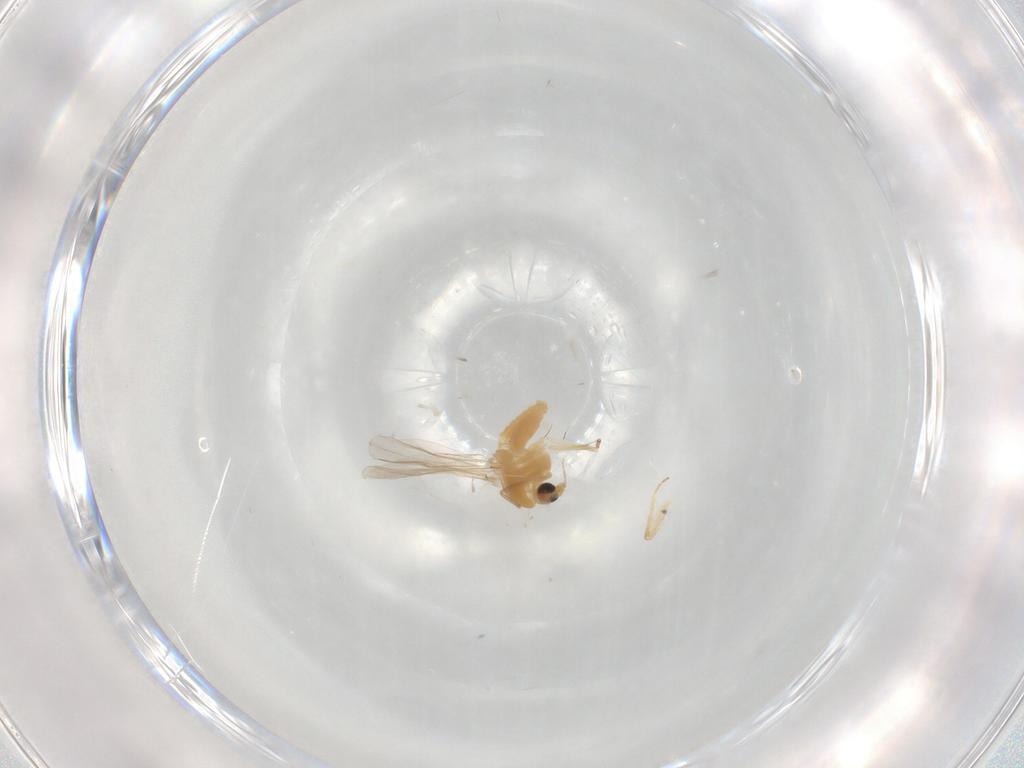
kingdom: Animalia
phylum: Arthropoda
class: Insecta
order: Diptera
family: Chironomidae
